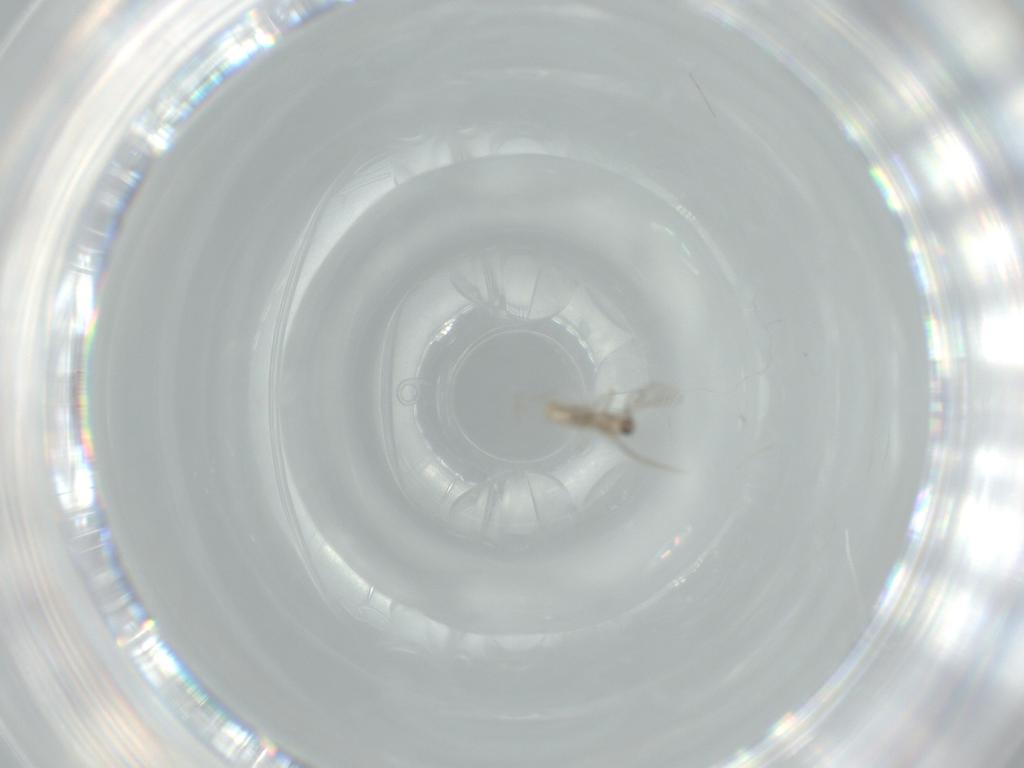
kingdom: Animalia
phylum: Arthropoda
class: Insecta
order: Diptera
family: Cecidomyiidae
